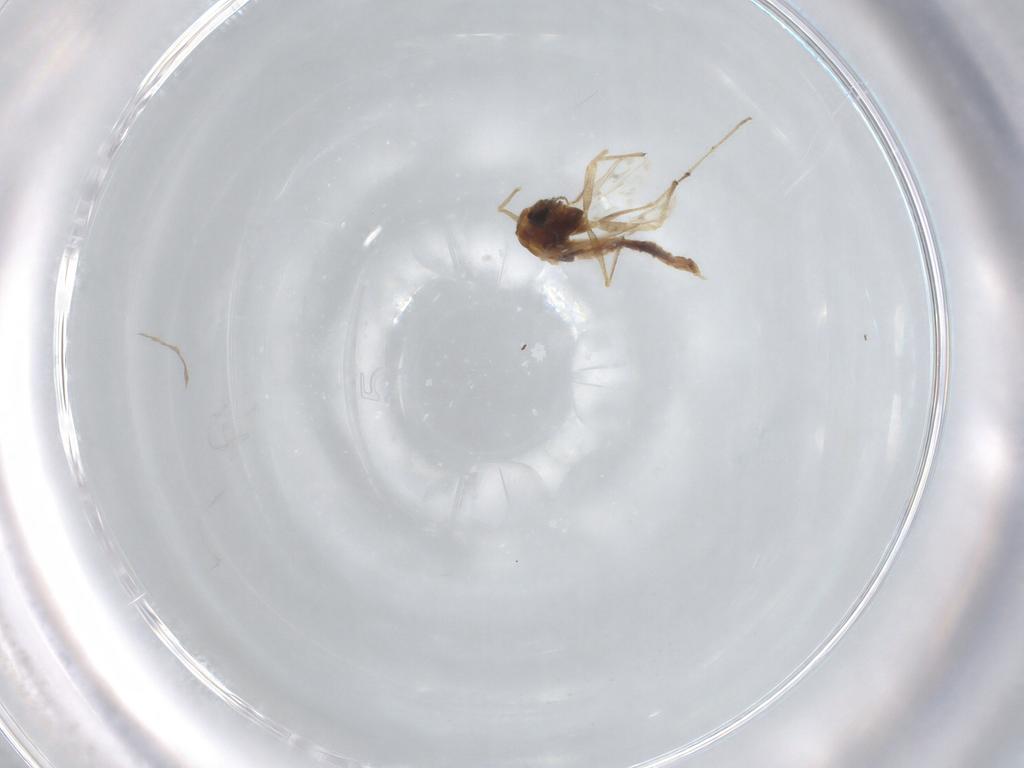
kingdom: Animalia
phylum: Arthropoda
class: Insecta
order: Diptera
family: Chironomidae
